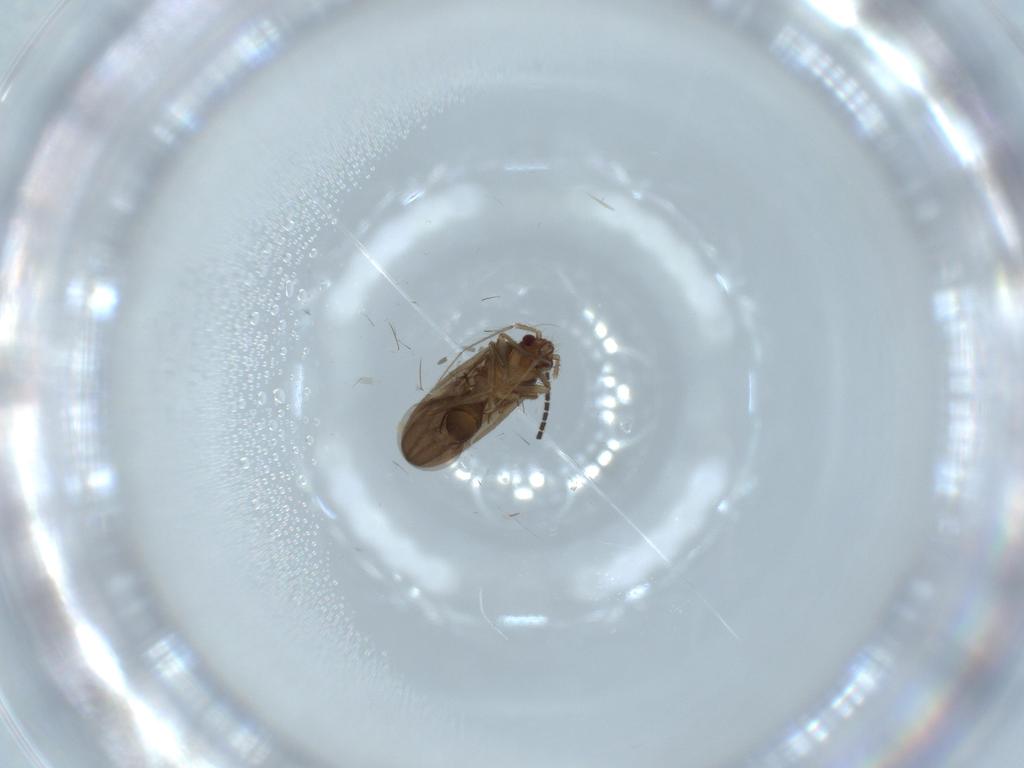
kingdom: Animalia
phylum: Arthropoda
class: Insecta
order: Hemiptera
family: Ceratocombidae
